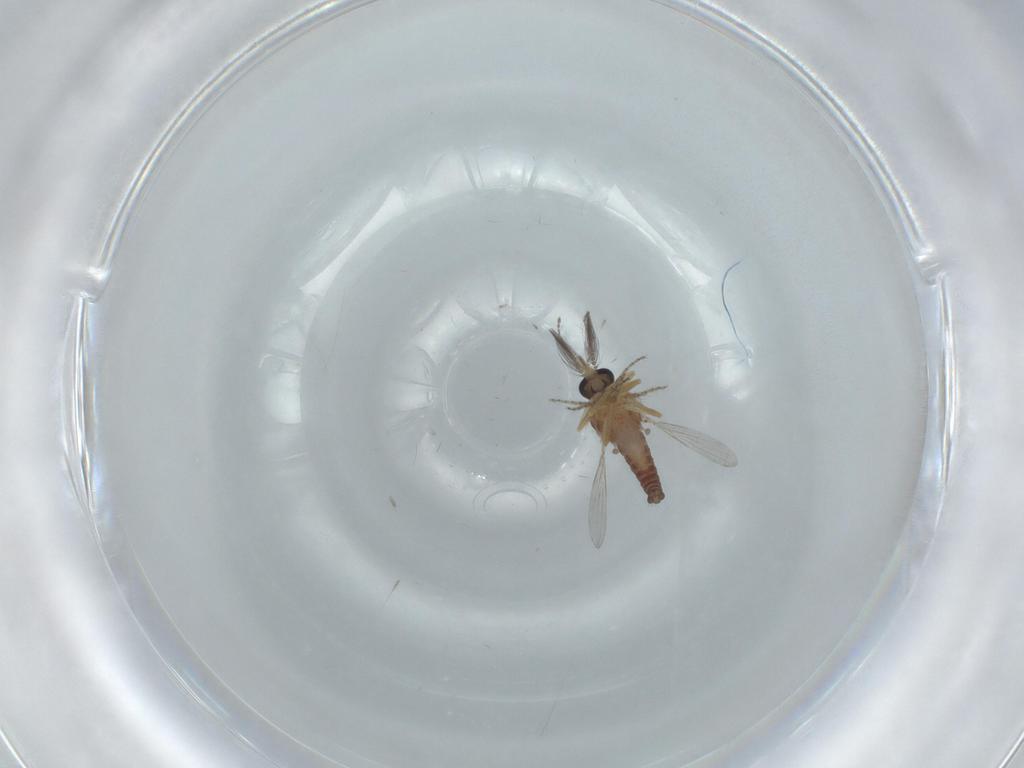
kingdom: Animalia
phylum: Arthropoda
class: Insecta
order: Diptera
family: Ceratopogonidae
